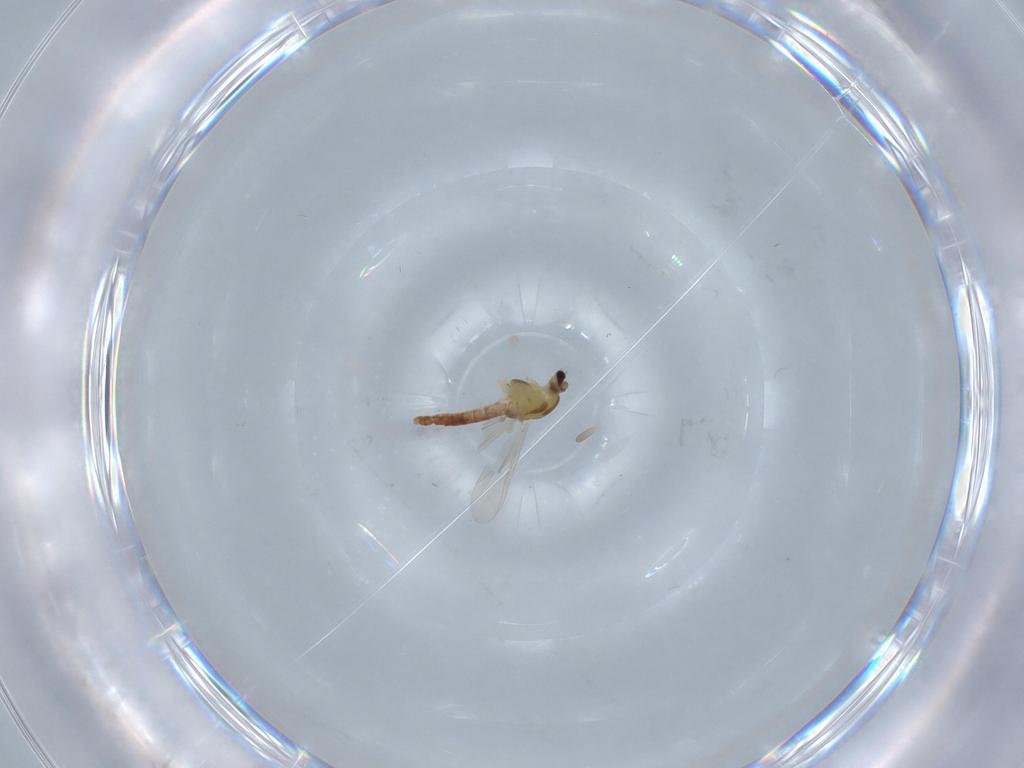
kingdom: Animalia
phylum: Arthropoda
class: Insecta
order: Diptera
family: Chironomidae
